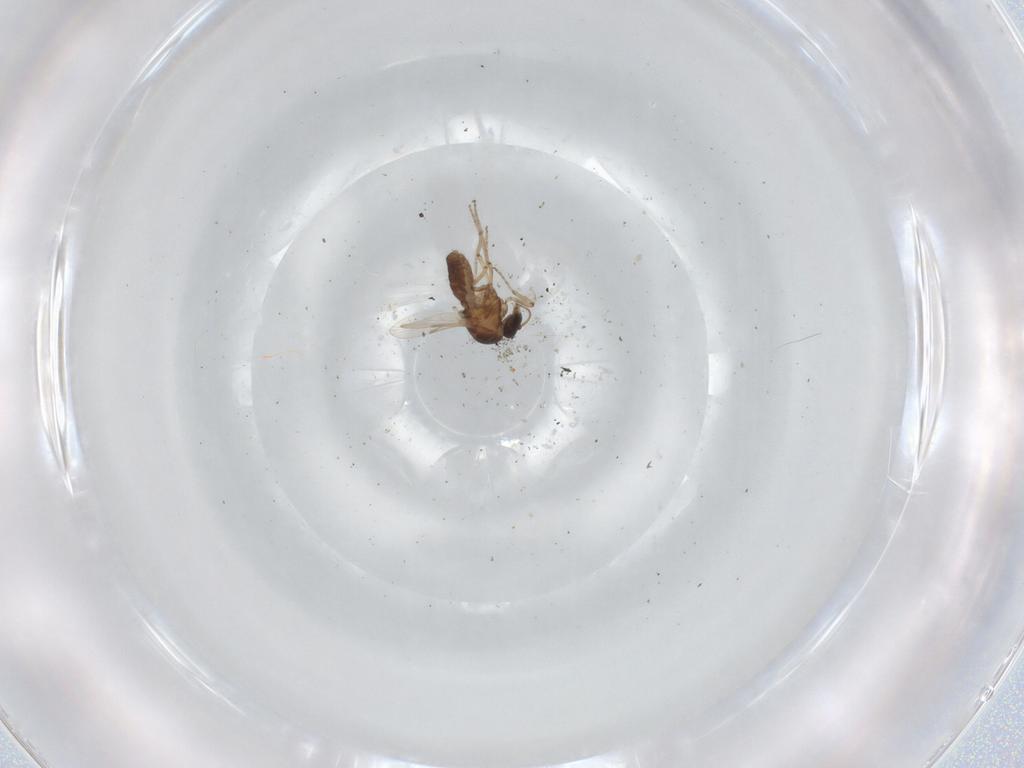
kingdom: Animalia
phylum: Arthropoda
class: Insecta
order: Diptera
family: Ceratopogonidae
